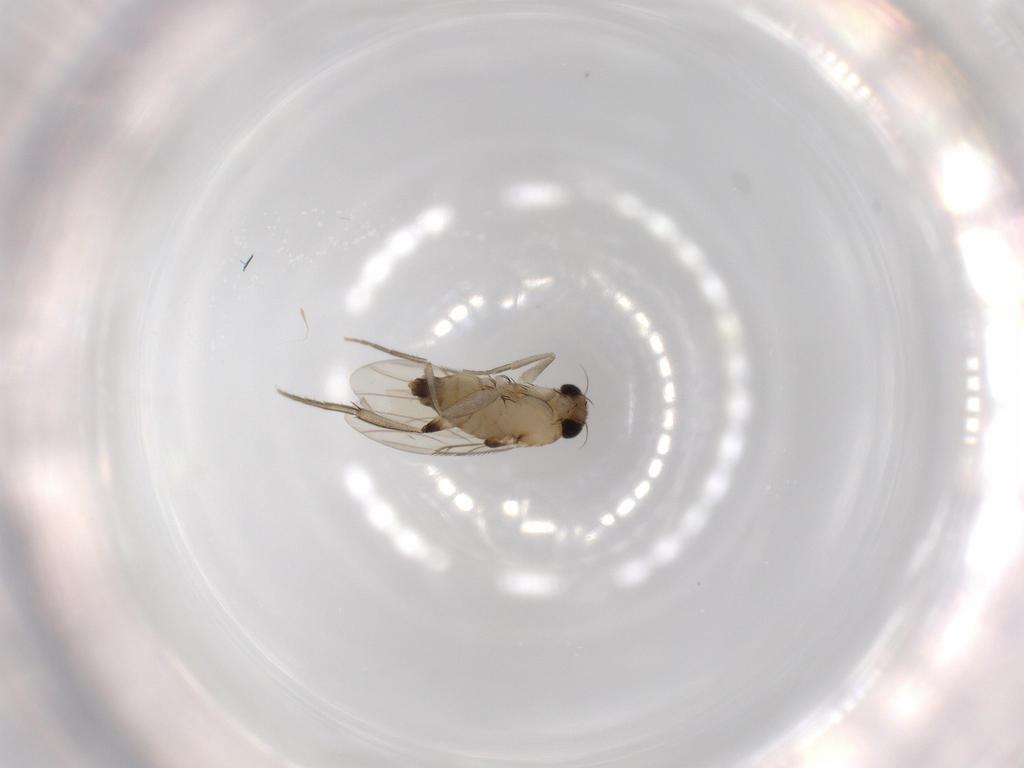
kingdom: Animalia
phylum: Arthropoda
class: Insecta
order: Diptera
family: Phoridae
